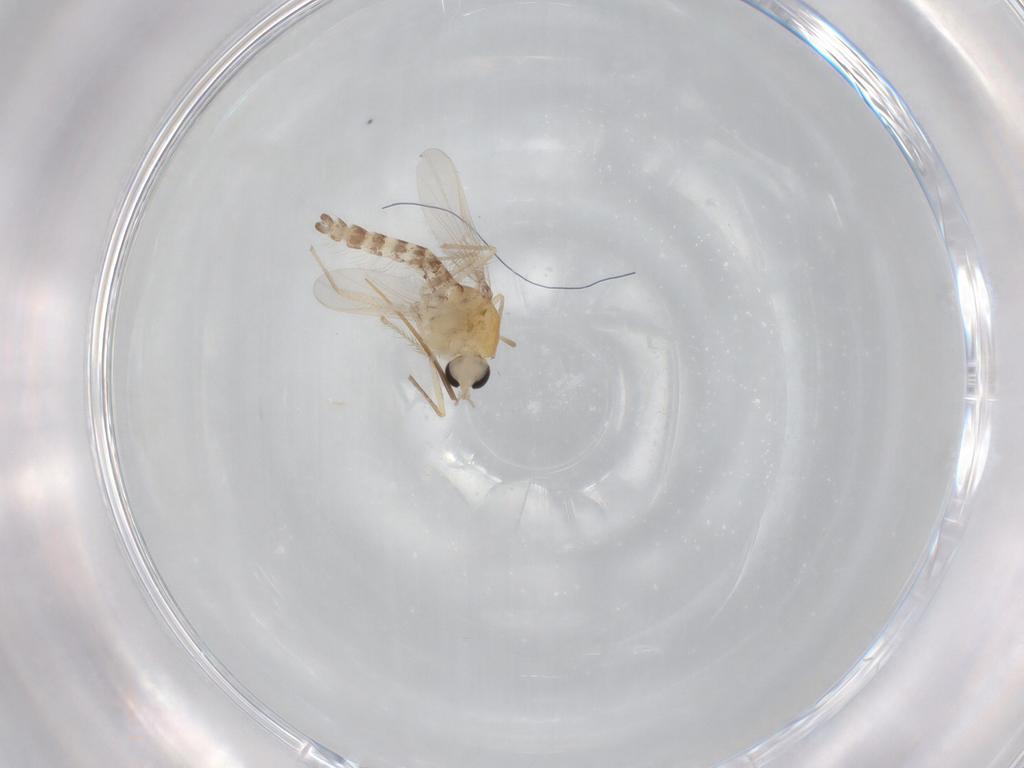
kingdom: Animalia
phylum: Arthropoda
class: Insecta
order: Diptera
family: Chironomidae
